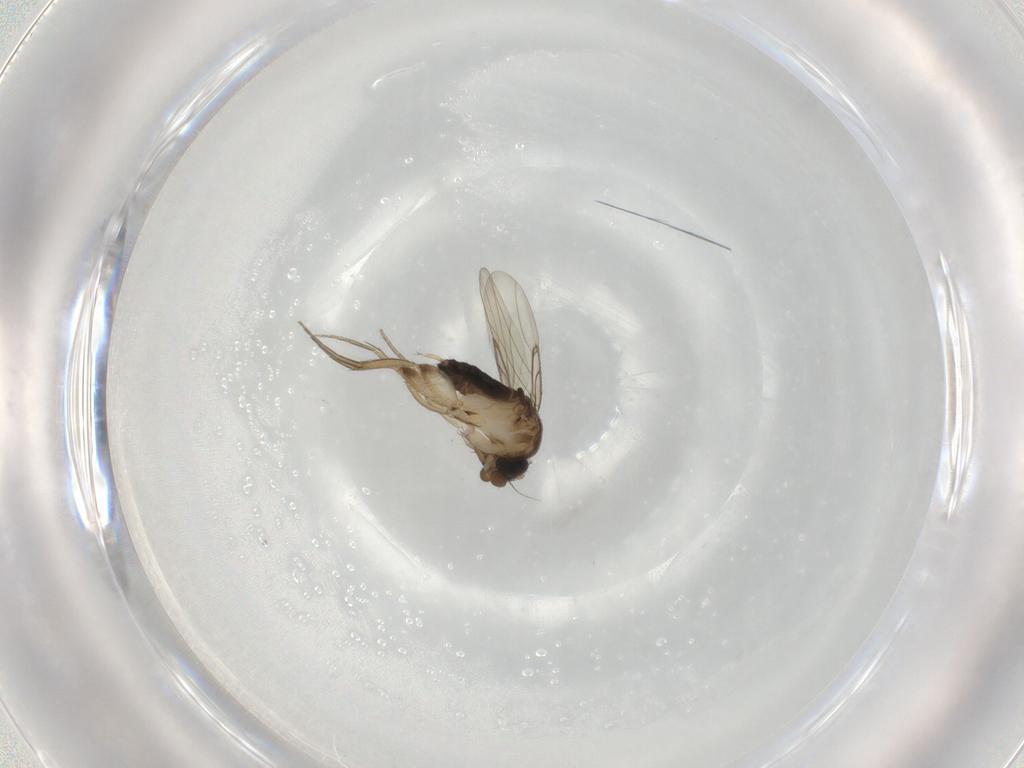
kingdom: Animalia
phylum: Arthropoda
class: Insecta
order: Diptera
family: Phoridae
